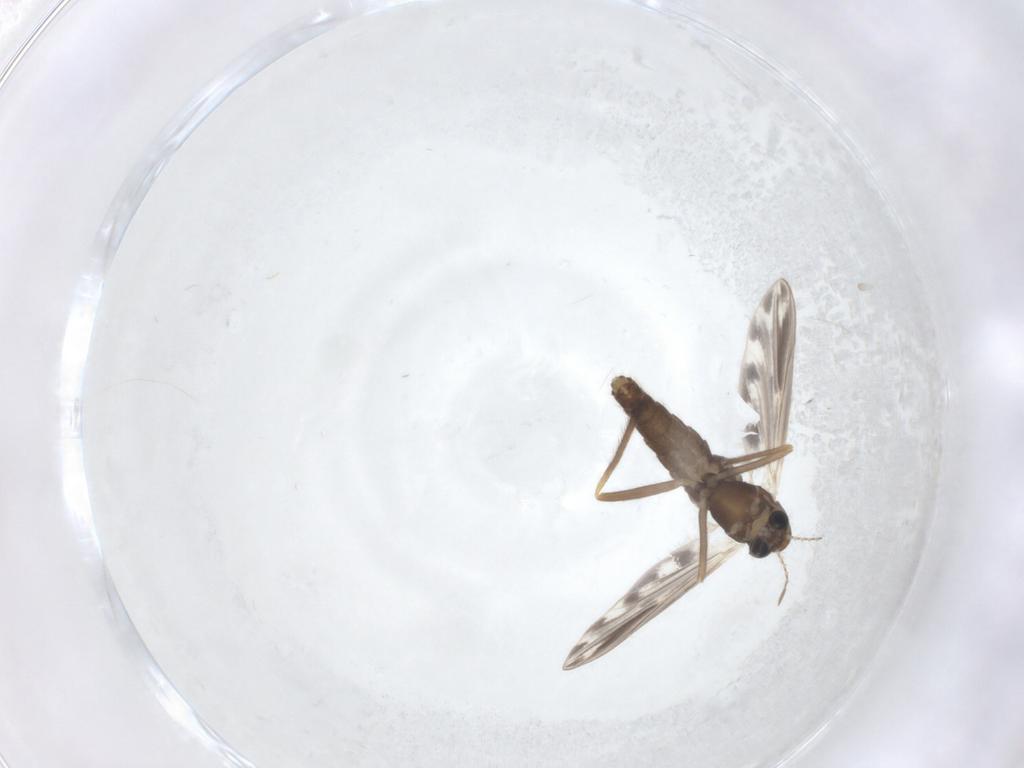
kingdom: Animalia
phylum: Arthropoda
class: Insecta
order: Diptera
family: Chironomidae
